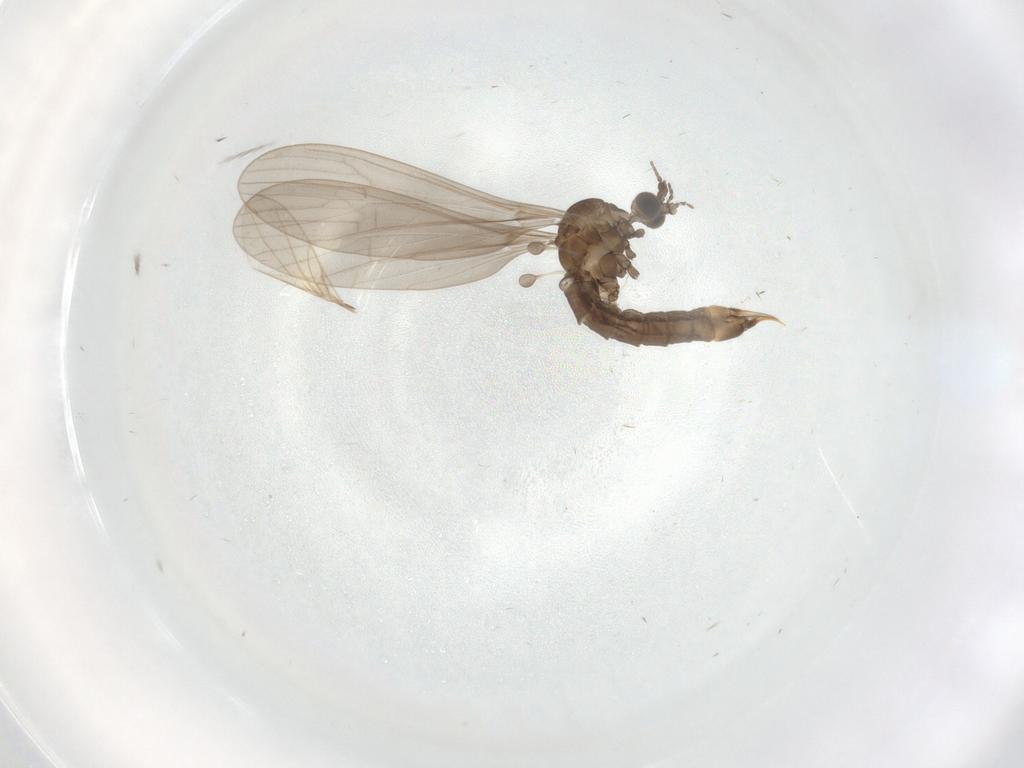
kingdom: Animalia
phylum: Arthropoda
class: Insecta
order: Diptera
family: Limoniidae
